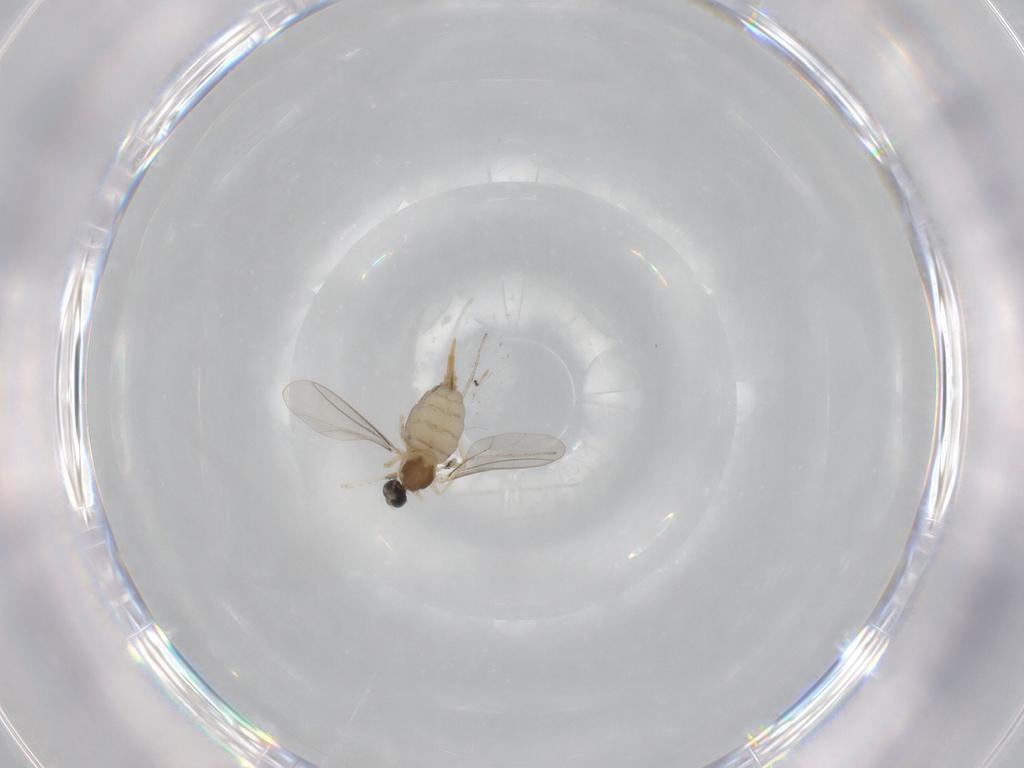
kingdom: Animalia
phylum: Arthropoda
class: Insecta
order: Diptera
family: Cecidomyiidae
